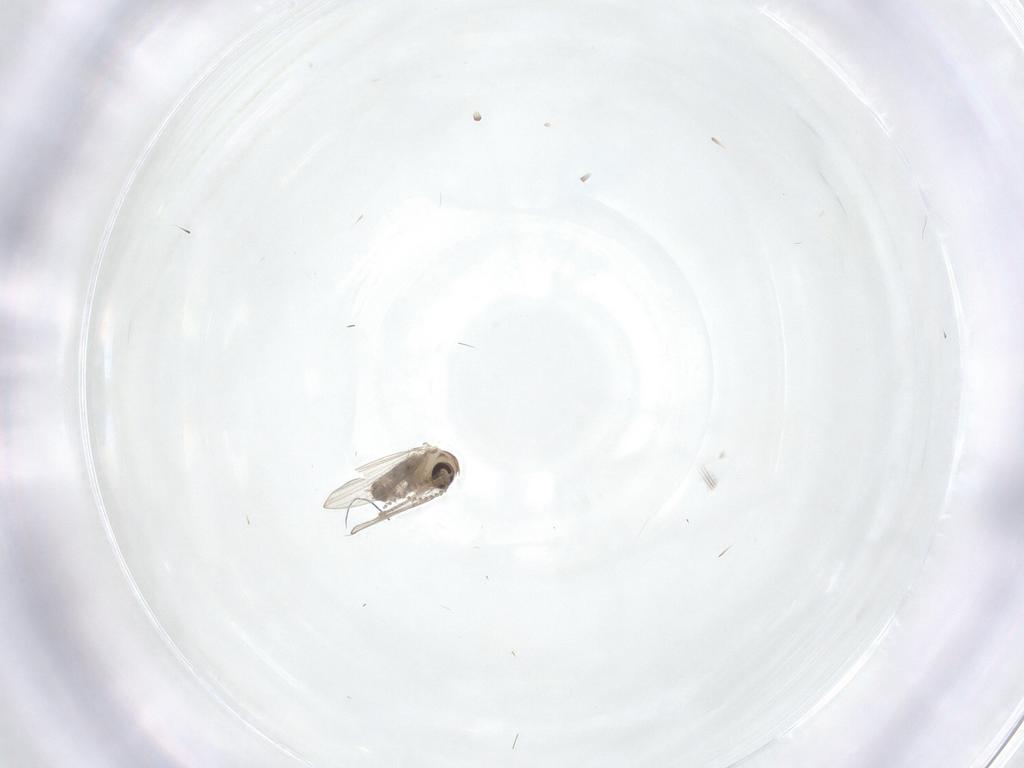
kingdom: Animalia
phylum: Arthropoda
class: Insecta
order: Diptera
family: Psychodidae
